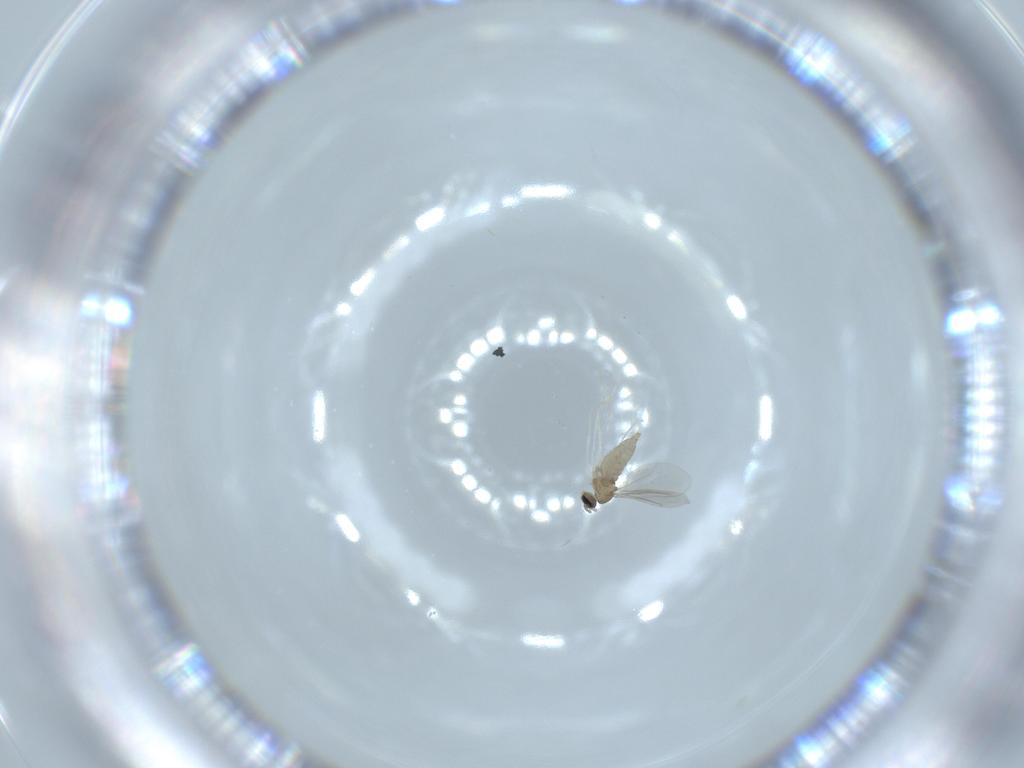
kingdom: Animalia
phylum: Arthropoda
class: Insecta
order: Diptera
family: Cecidomyiidae
